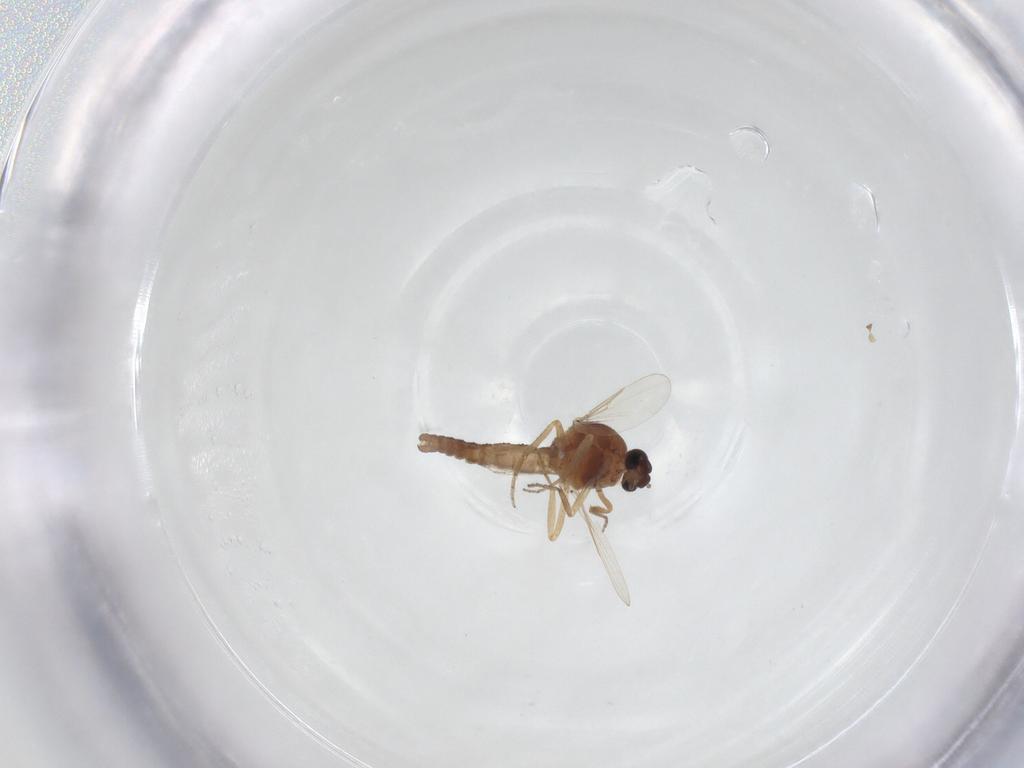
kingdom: Animalia
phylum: Arthropoda
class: Insecta
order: Diptera
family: Ceratopogonidae
